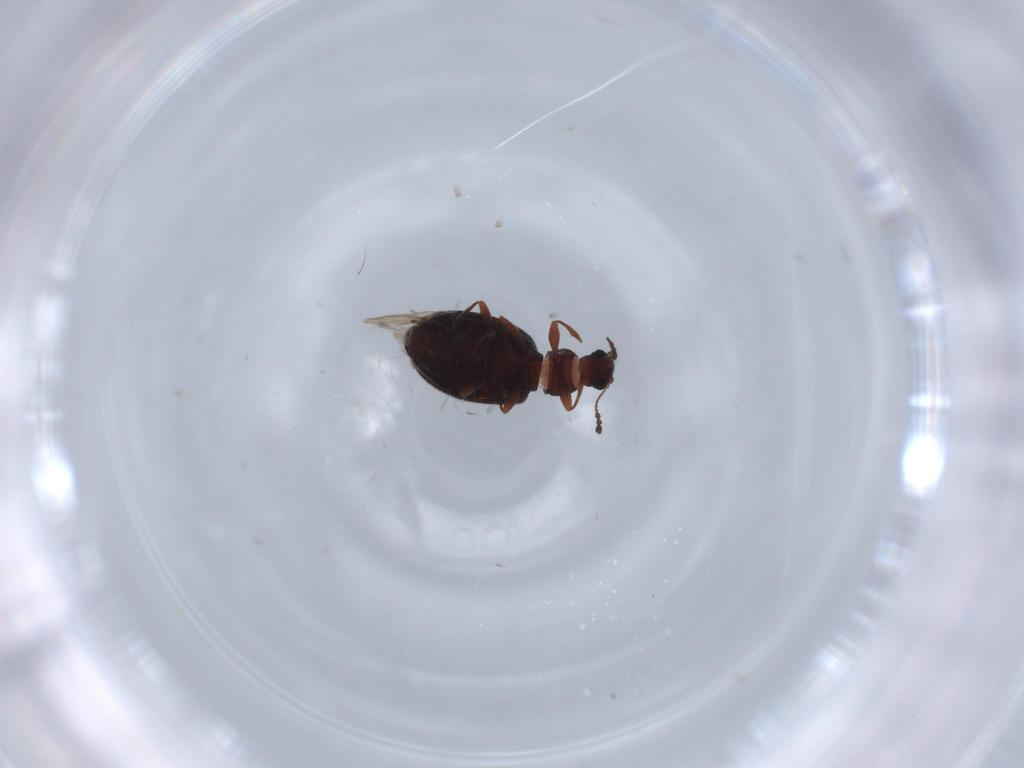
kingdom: Animalia
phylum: Arthropoda
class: Insecta
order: Coleoptera
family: Latridiidae
